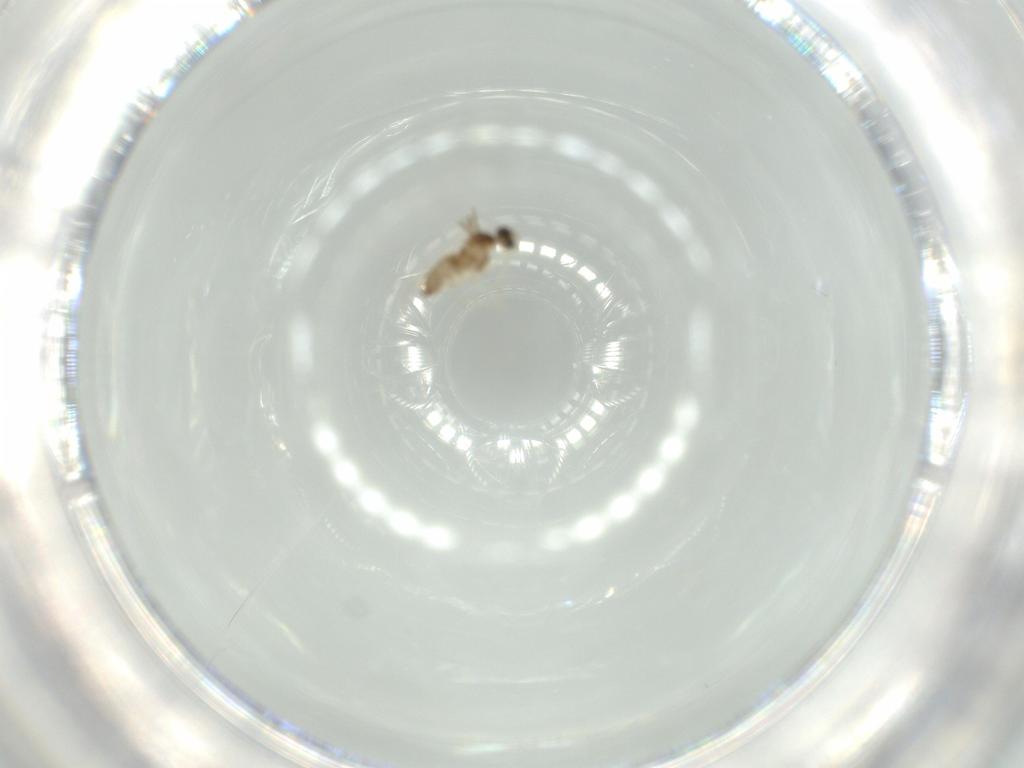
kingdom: Animalia
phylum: Arthropoda
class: Insecta
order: Diptera
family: Cecidomyiidae
